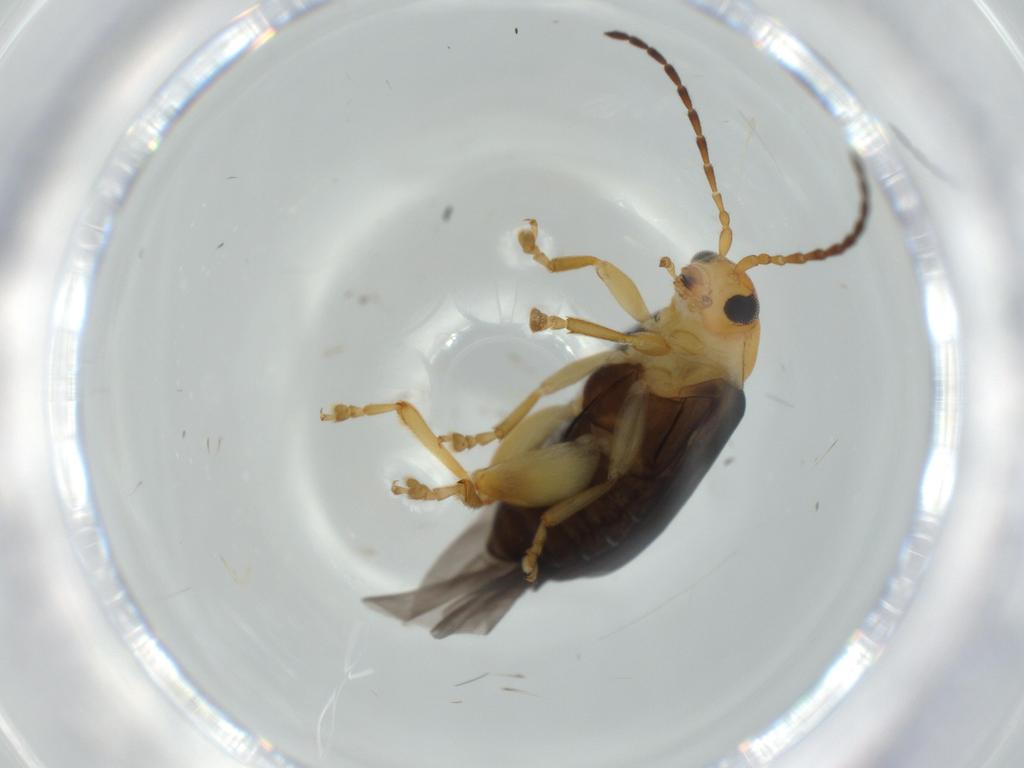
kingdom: Animalia
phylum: Arthropoda
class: Insecta
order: Coleoptera
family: Chrysomelidae
